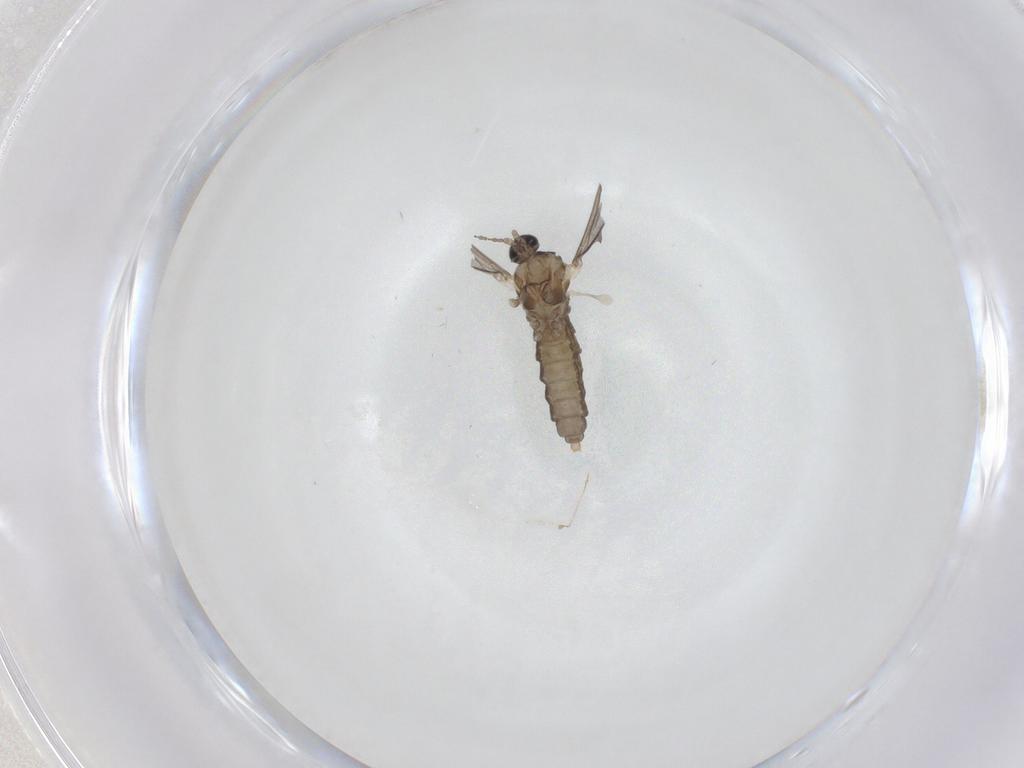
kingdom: Animalia
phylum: Arthropoda
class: Insecta
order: Diptera
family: Cecidomyiidae
